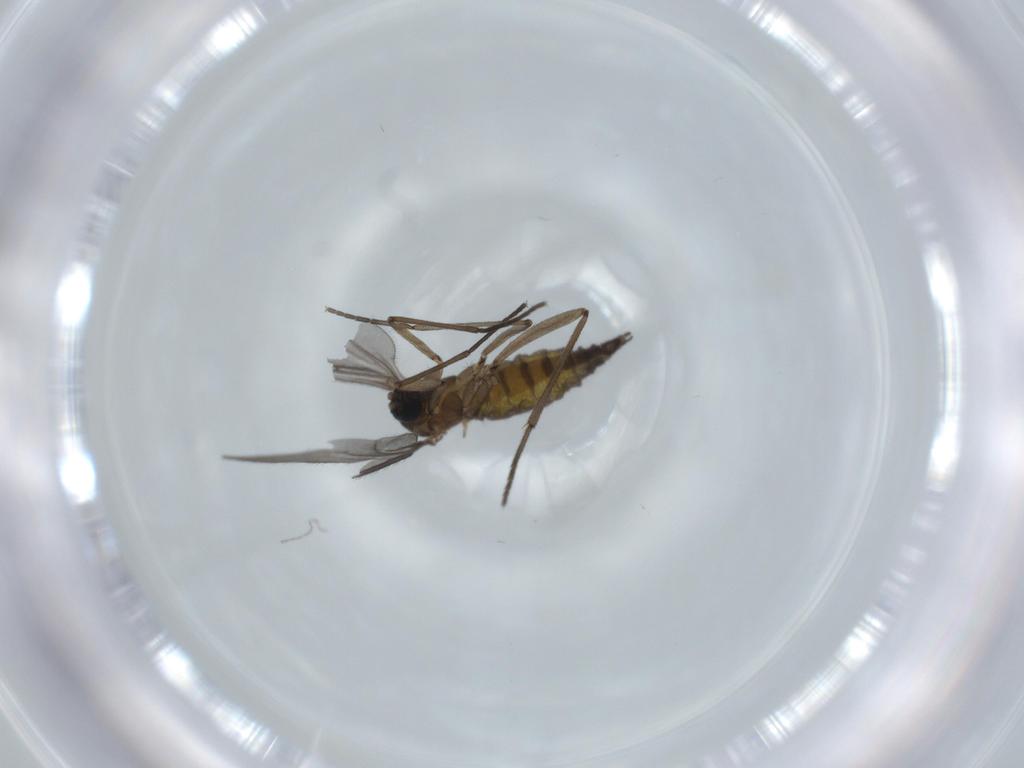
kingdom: Animalia
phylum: Arthropoda
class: Insecta
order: Diptera
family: Sciaridae
